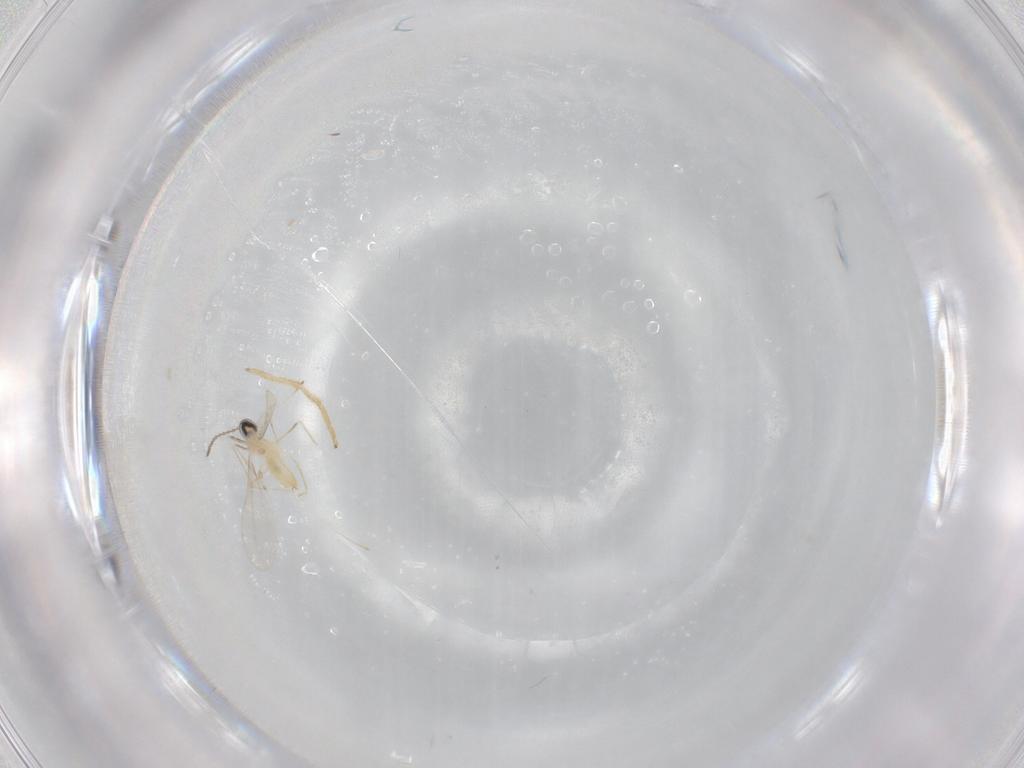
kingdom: Animalia
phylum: Arthropoda
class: Insecta
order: Diptera
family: Cecidomyiidae
